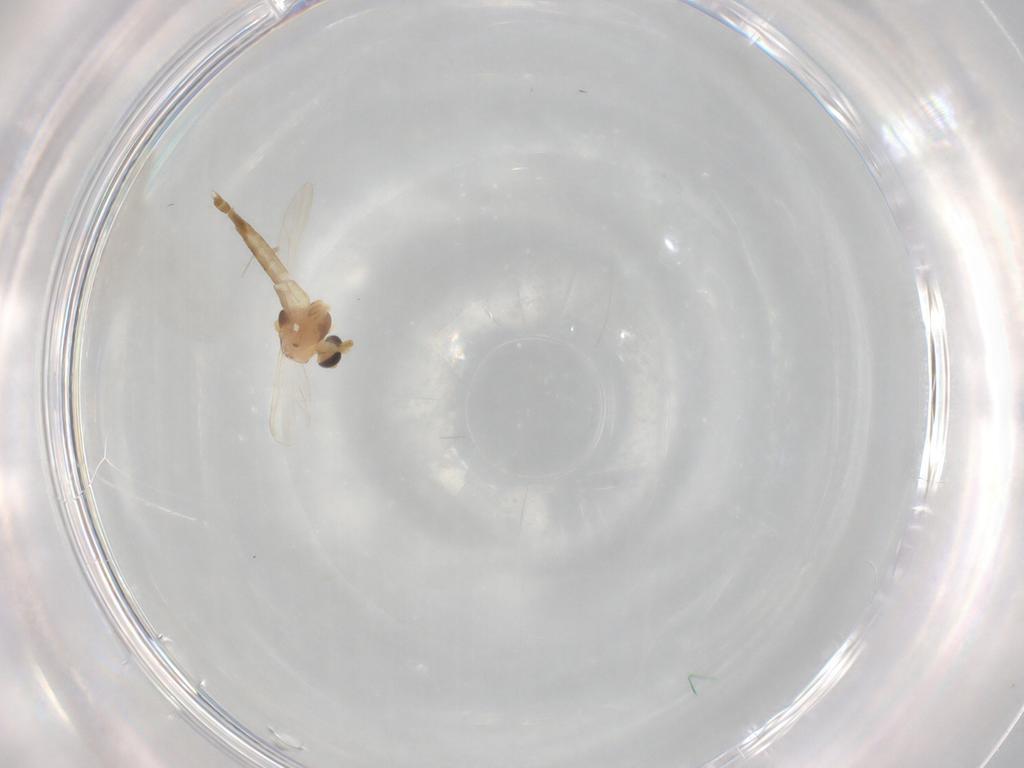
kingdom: Animalia
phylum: Arthropoda
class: Insecta
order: Diptera
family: Chironomidae
